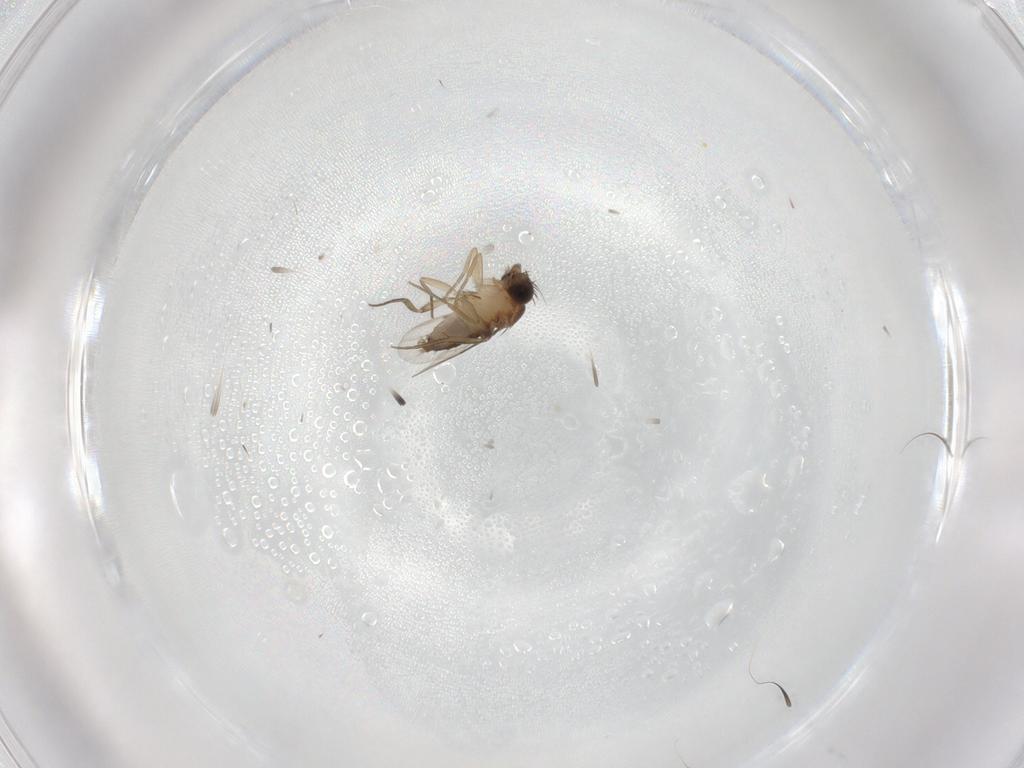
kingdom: Animalia
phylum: Arthropoda
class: Insecta
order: Diptera
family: Phoridae
